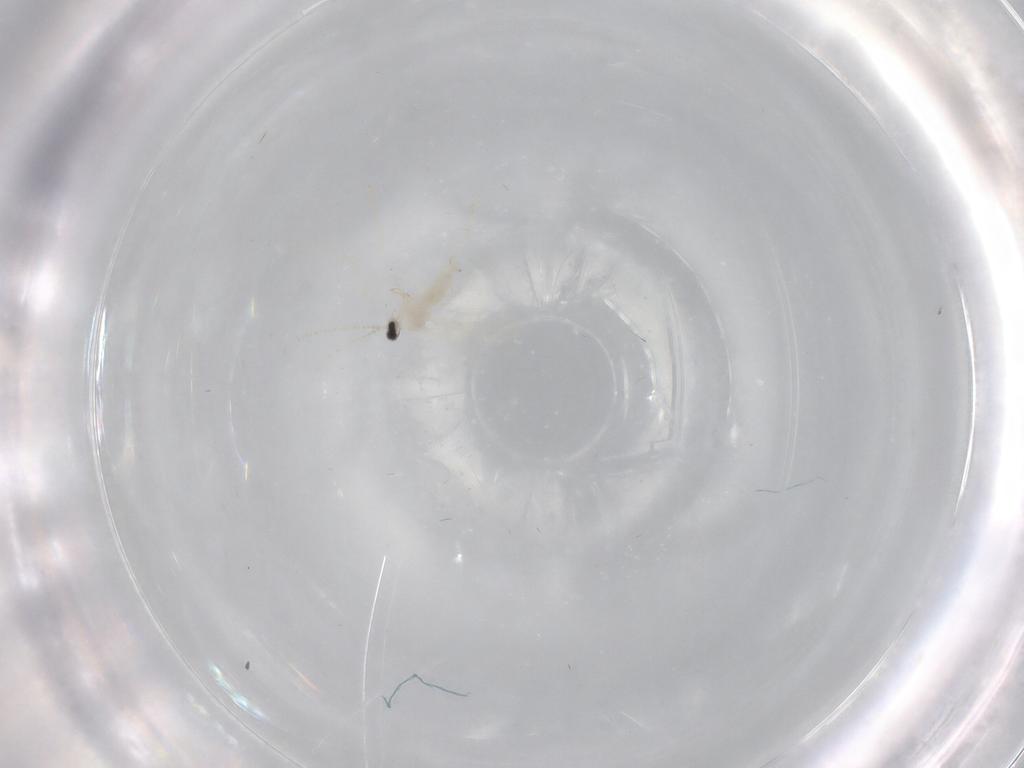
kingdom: Animalia
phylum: Arthropoda
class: Insecta
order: Diptera
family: Cecidomyiidae
